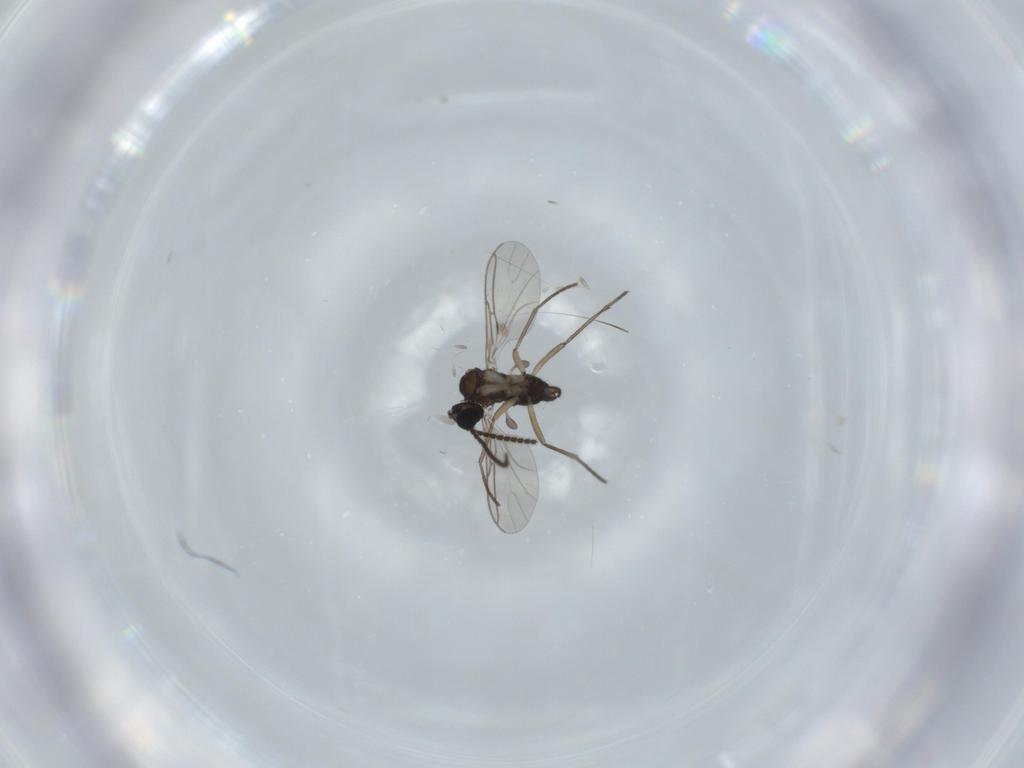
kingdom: Animalia
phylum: Arthropoda
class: Insecta
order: Diptera
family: Sciaridae
